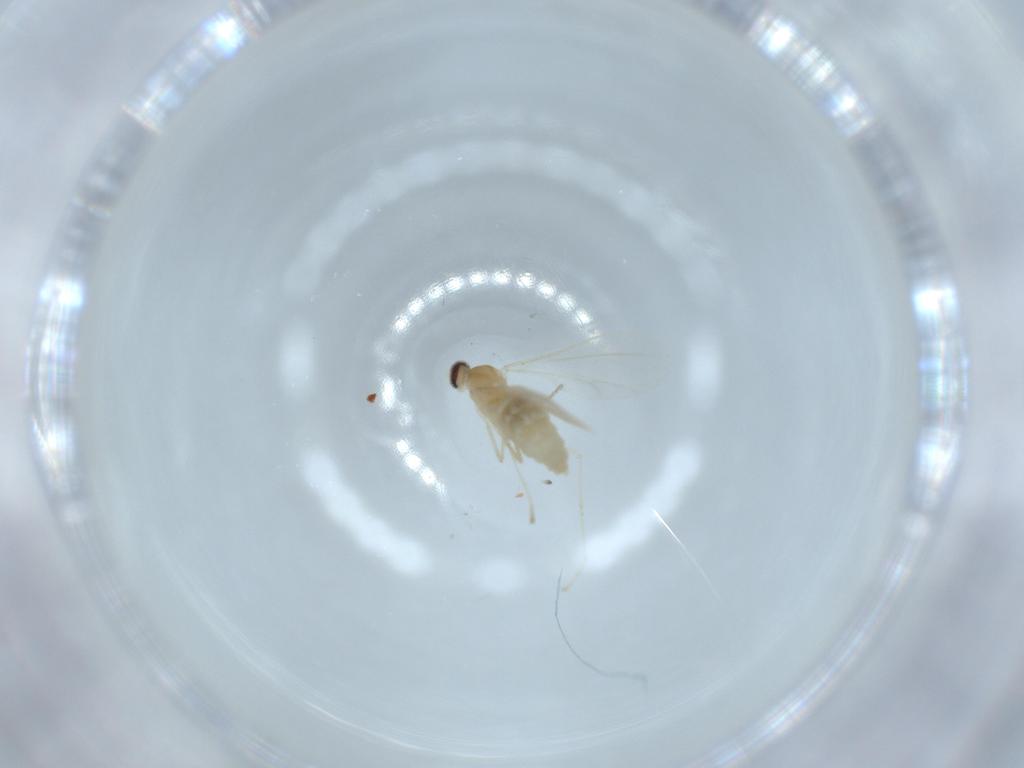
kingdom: Animalia
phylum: Arthropoda
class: Insecta
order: Diptera
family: Cecidomyiidae
